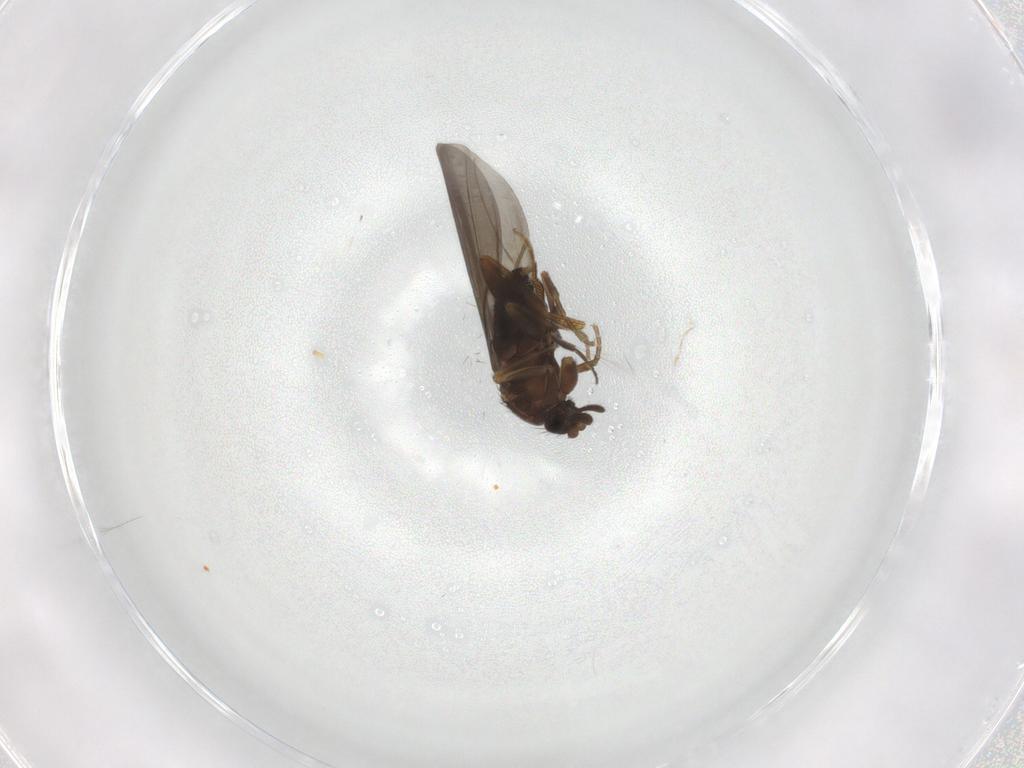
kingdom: Animalia
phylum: Arthropoda
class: Insecta
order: Diptera
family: Phoridae
